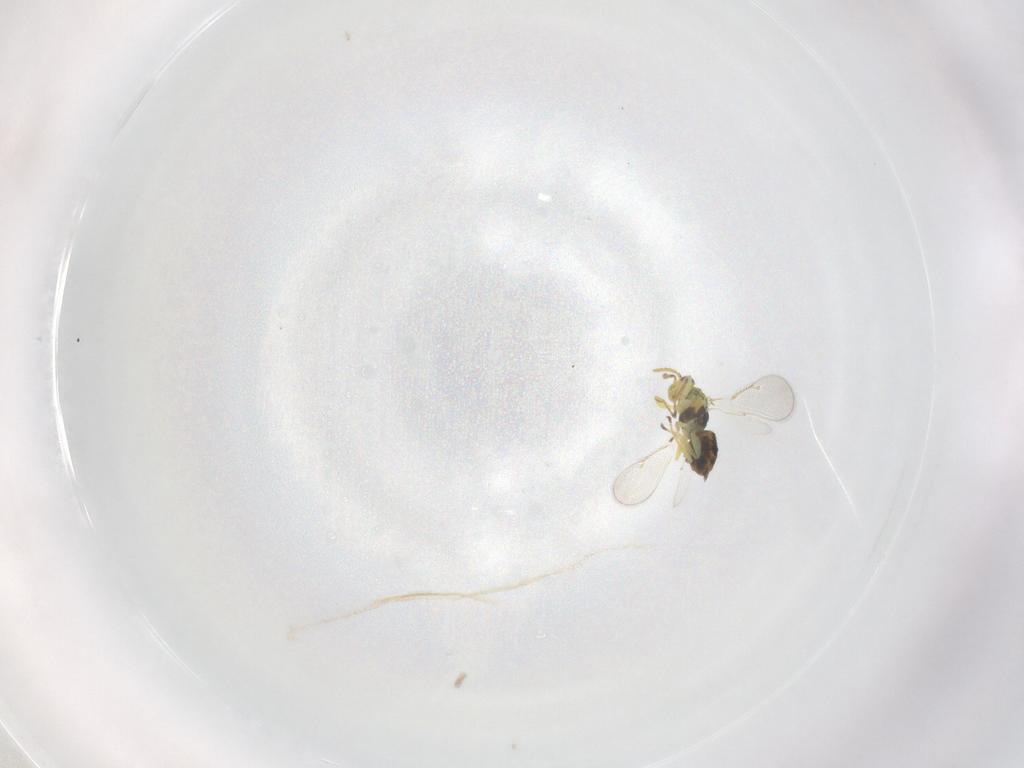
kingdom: Animalia
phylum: Arthropoda
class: Insecta
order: Hymenoptera
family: Eulophidae
